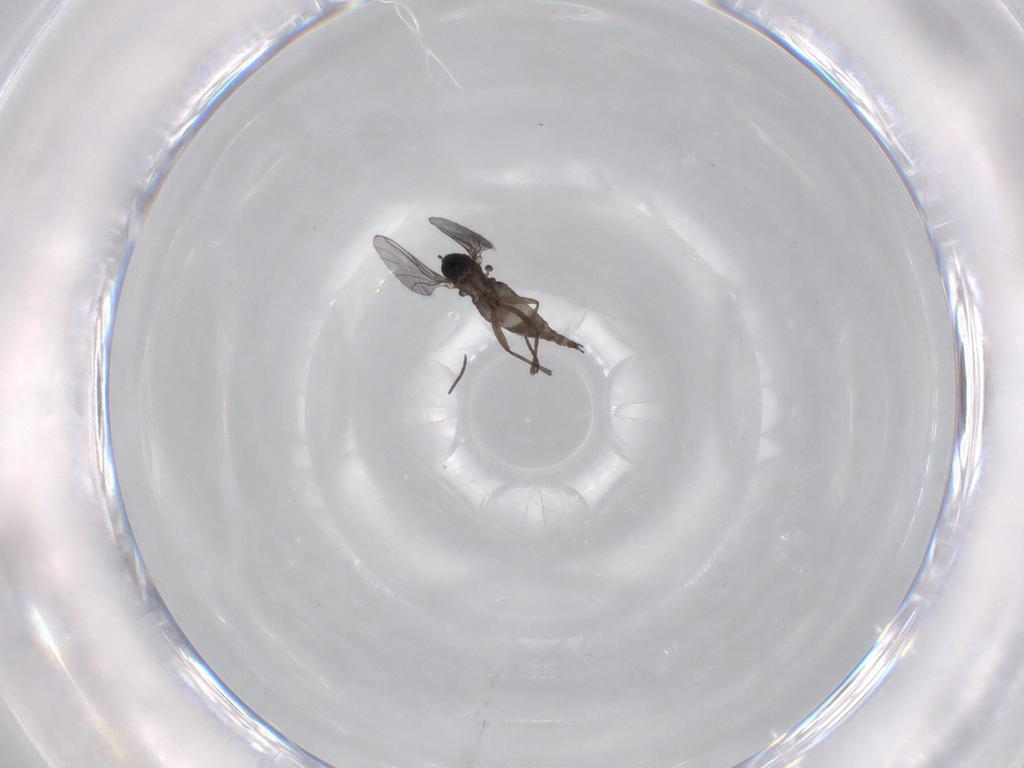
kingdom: Animalia
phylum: Arthropoda
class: Insecta
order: Diptera
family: Sciaridae
